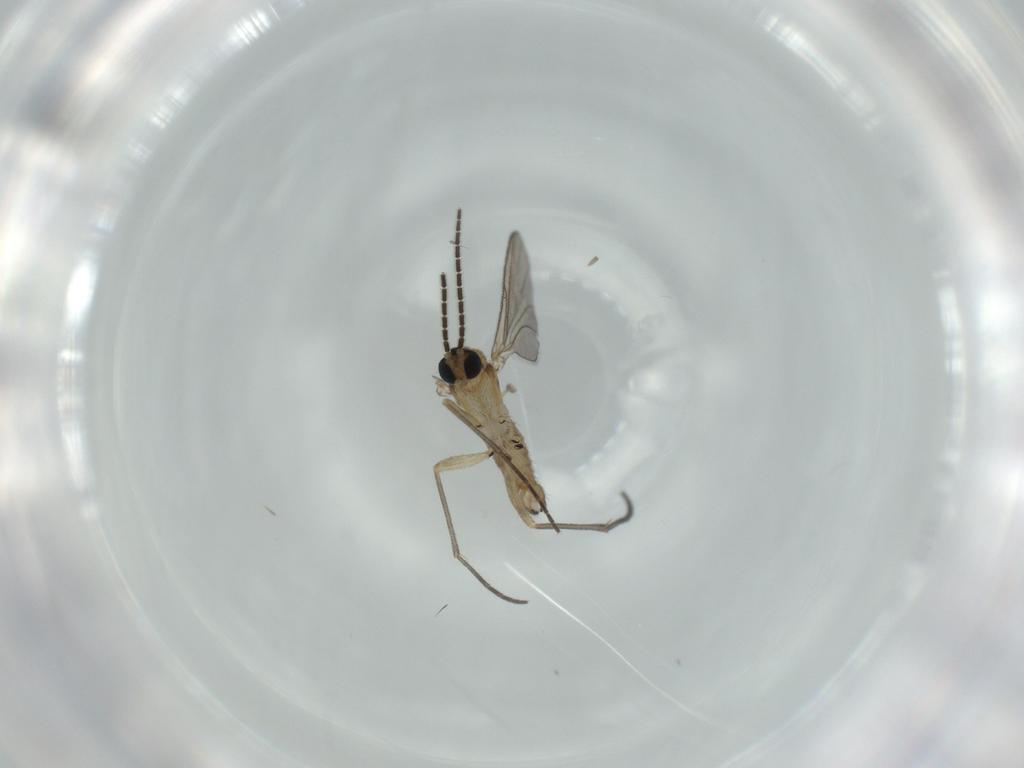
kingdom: Animalia
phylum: Arthropoda
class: Insecta
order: Diptera
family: Sciaridae
